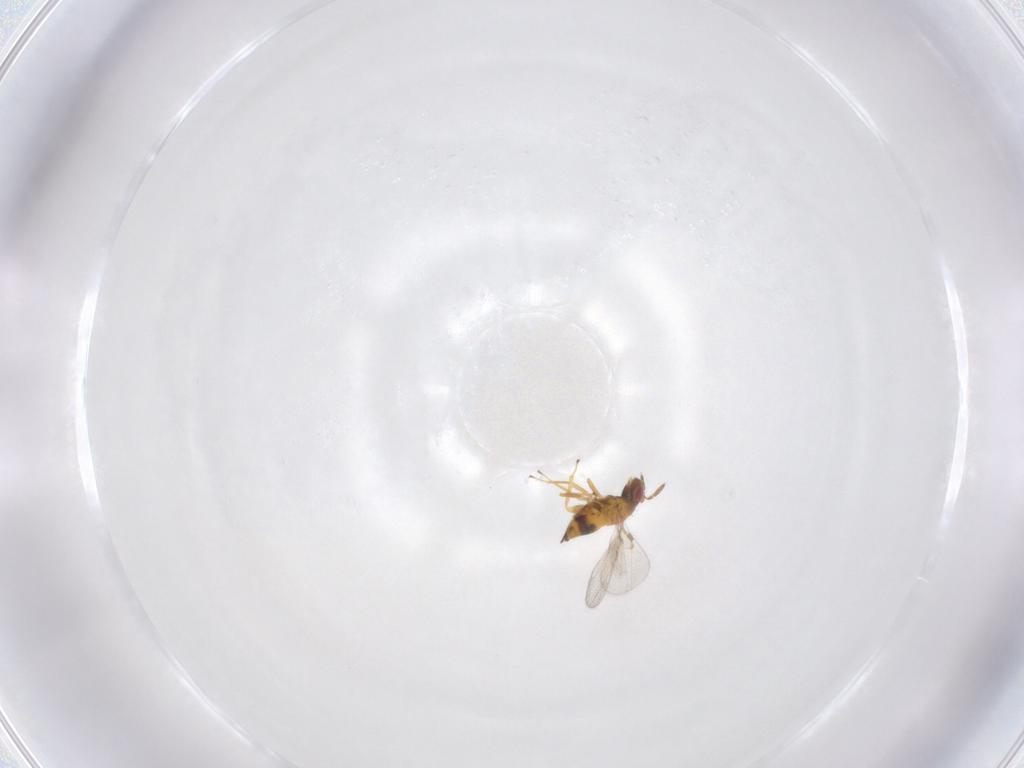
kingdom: Animalia
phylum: Arthropoda
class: Insecta
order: Hymenoptera
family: Trichogrammatidae
